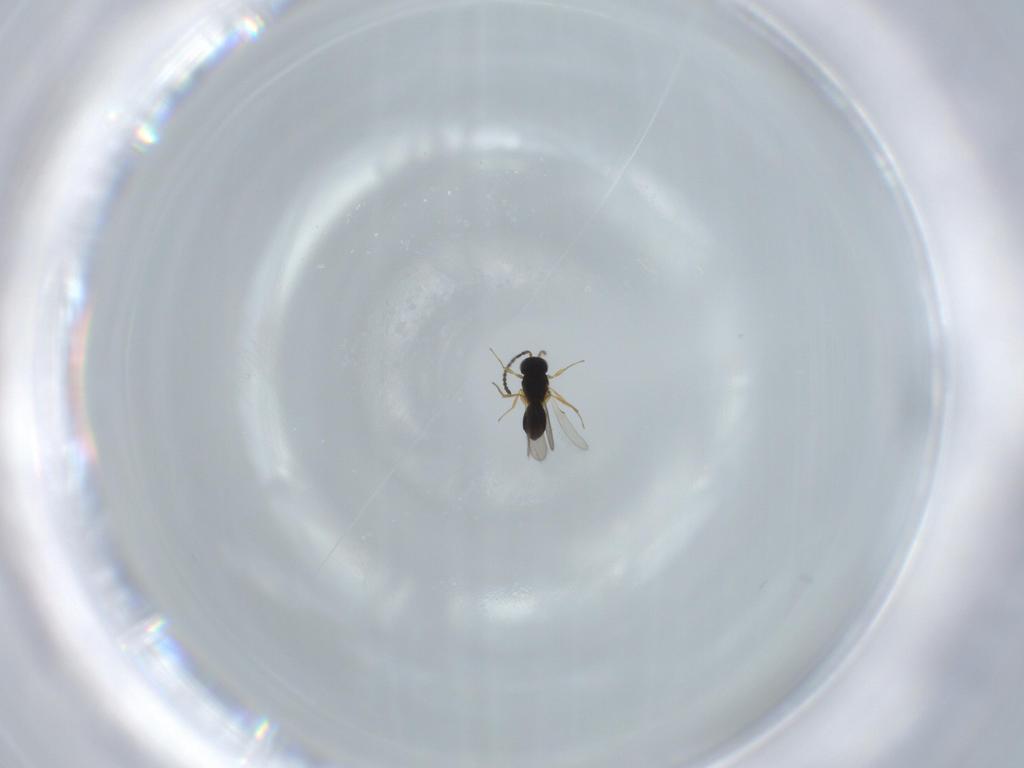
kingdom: Animalia
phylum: Arthropoda
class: Insecta
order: Hymenoptera
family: Scelionidae
